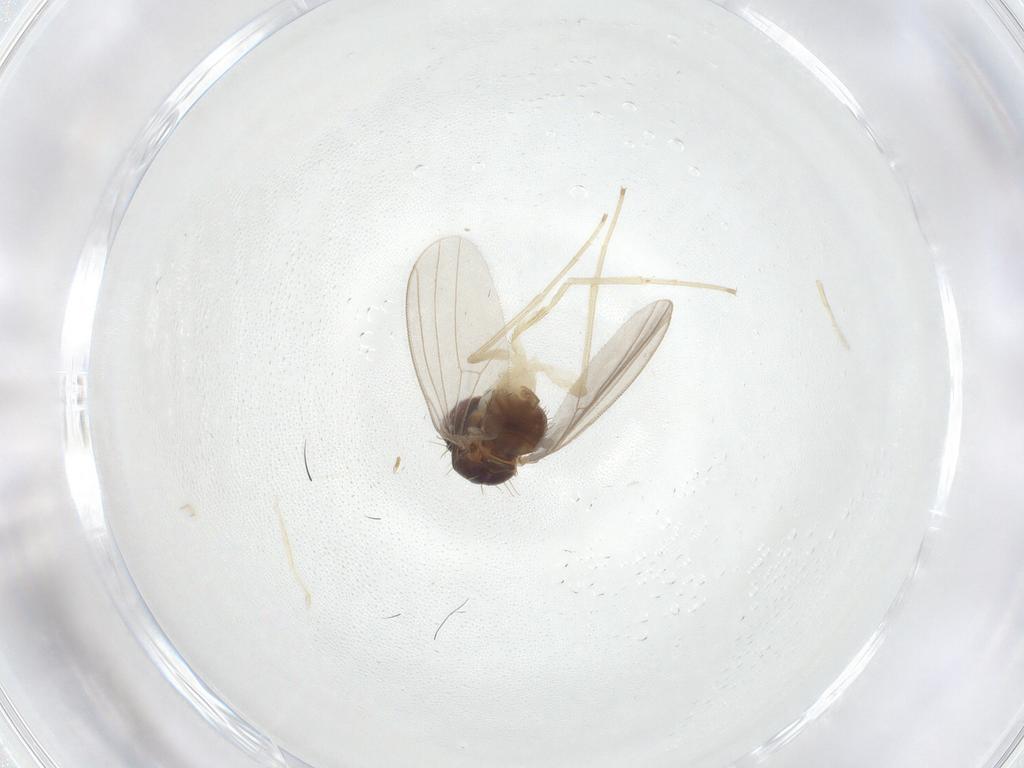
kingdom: Animalia
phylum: Arthropoda
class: Insecta
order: Diptera
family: Dolichopodidae
